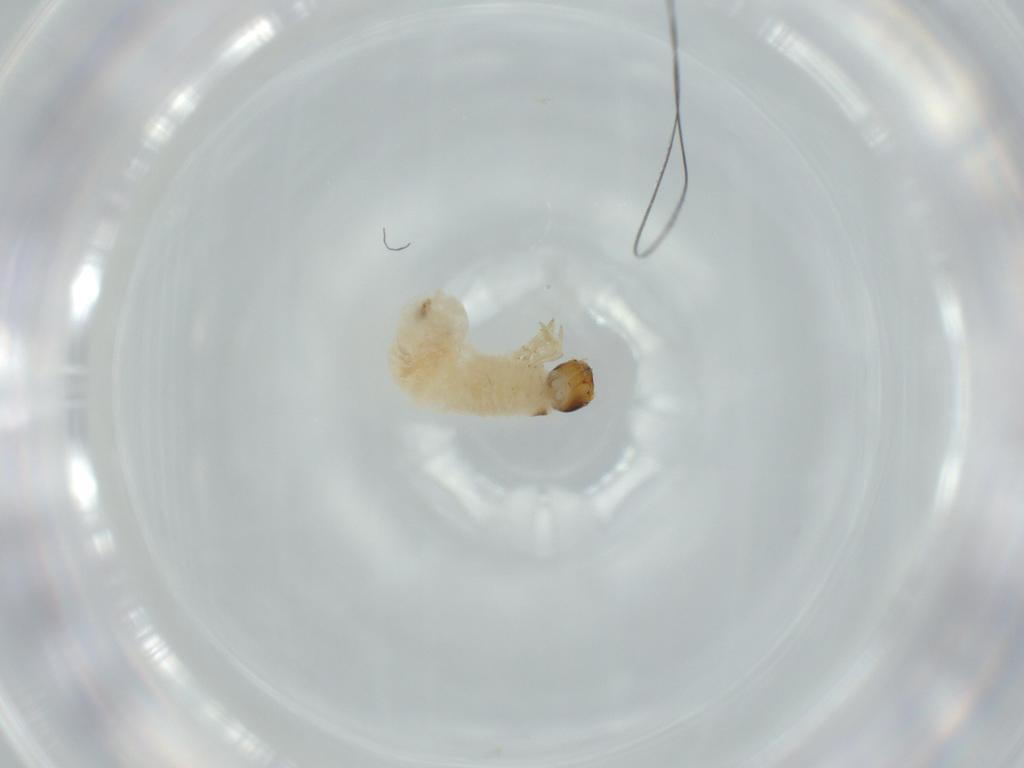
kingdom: Animalia
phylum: Arthropoda
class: Insecta
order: Coleoptera
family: Chrysomelidae
